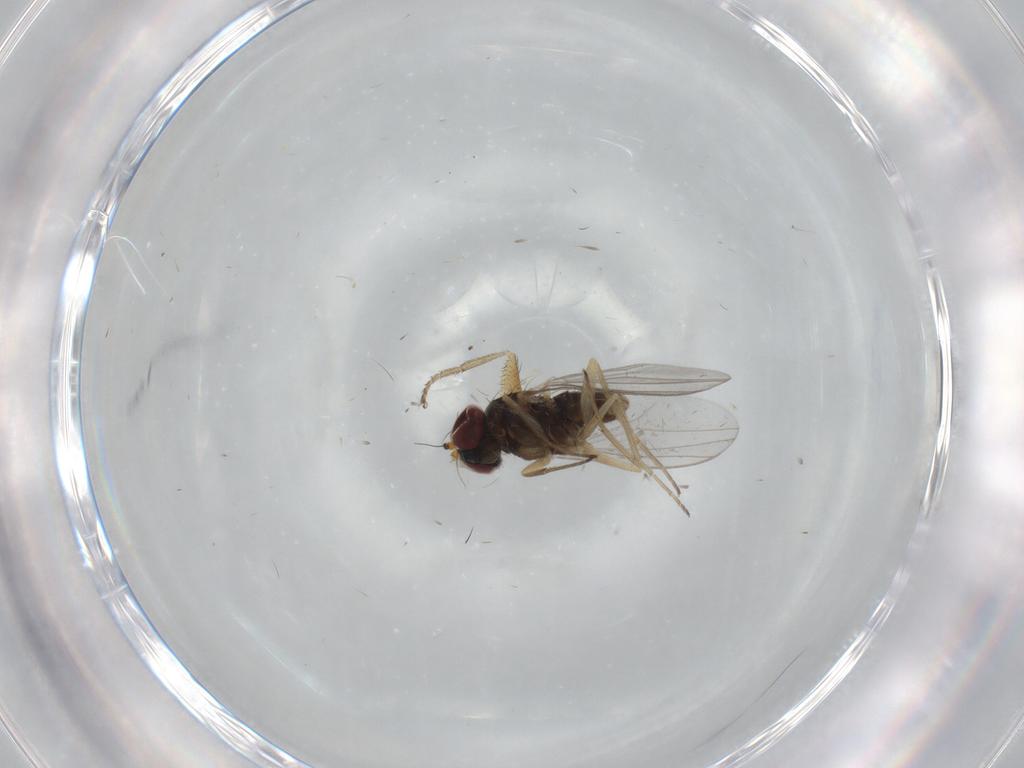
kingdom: Animalia
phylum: Arthropoda
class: Insecta
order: Diptera
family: Heleomyzidae
